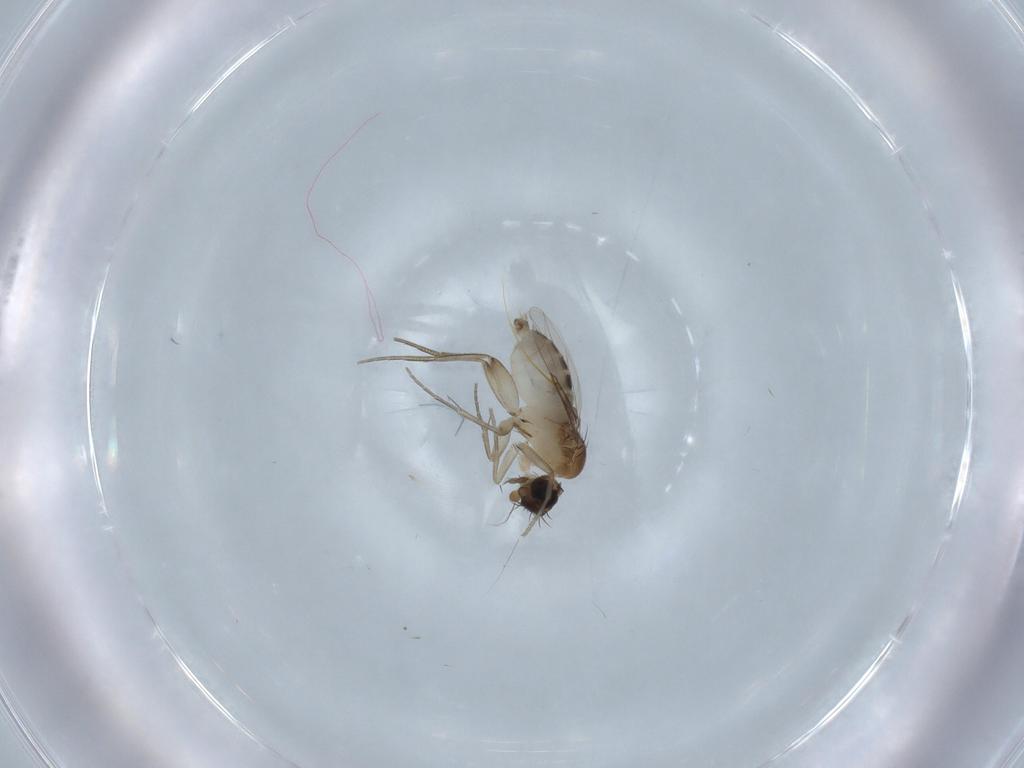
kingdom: Animalia
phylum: Arthropoda
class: Insecta
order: Diptera
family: Phoridae
